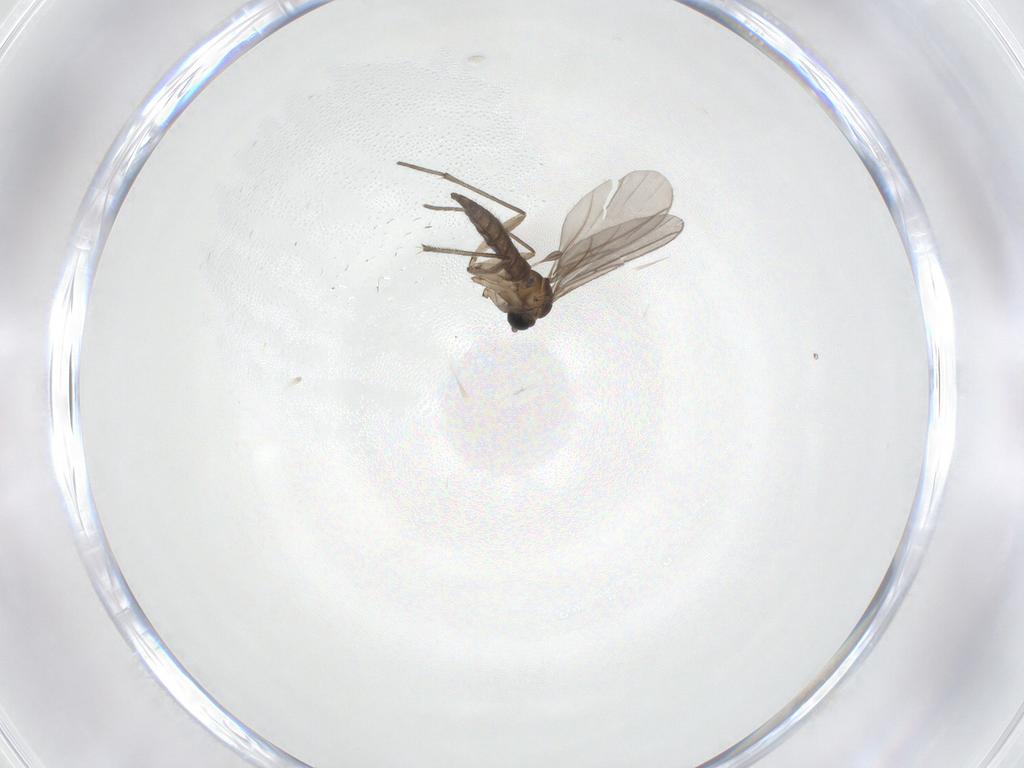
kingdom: Animalia
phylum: Arthropoda
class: Insecta
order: Diptera
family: Sciaridae
